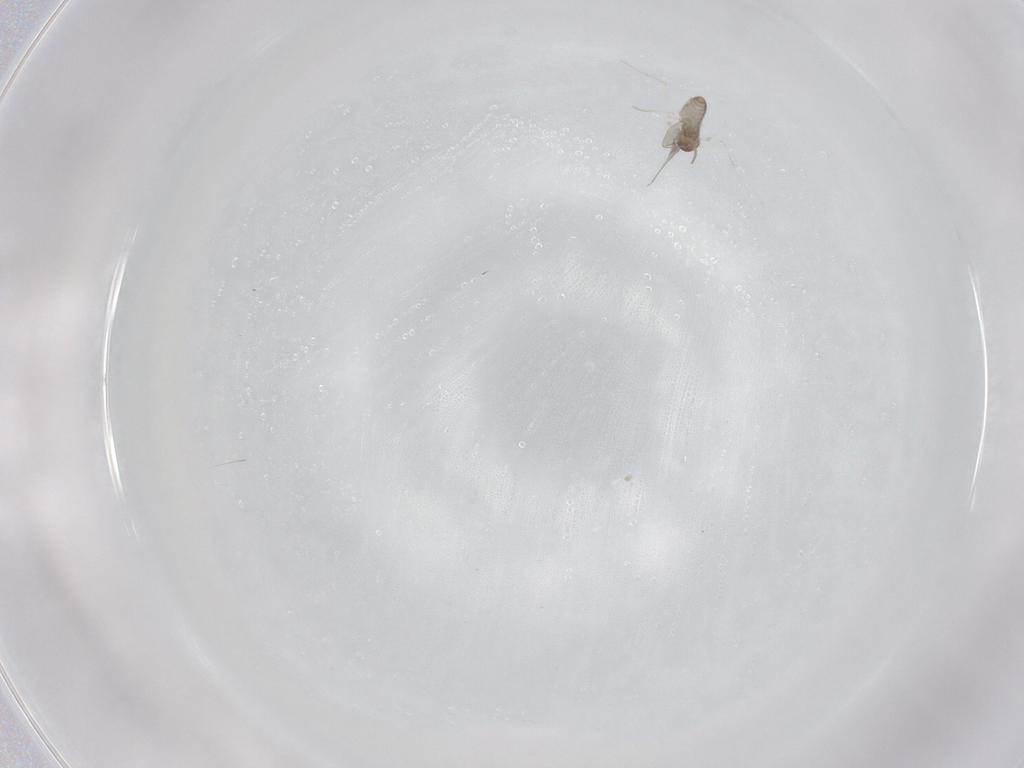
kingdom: Animalia
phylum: Arthropoda
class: Insecta
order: Diptera
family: Cecidomyiidae
